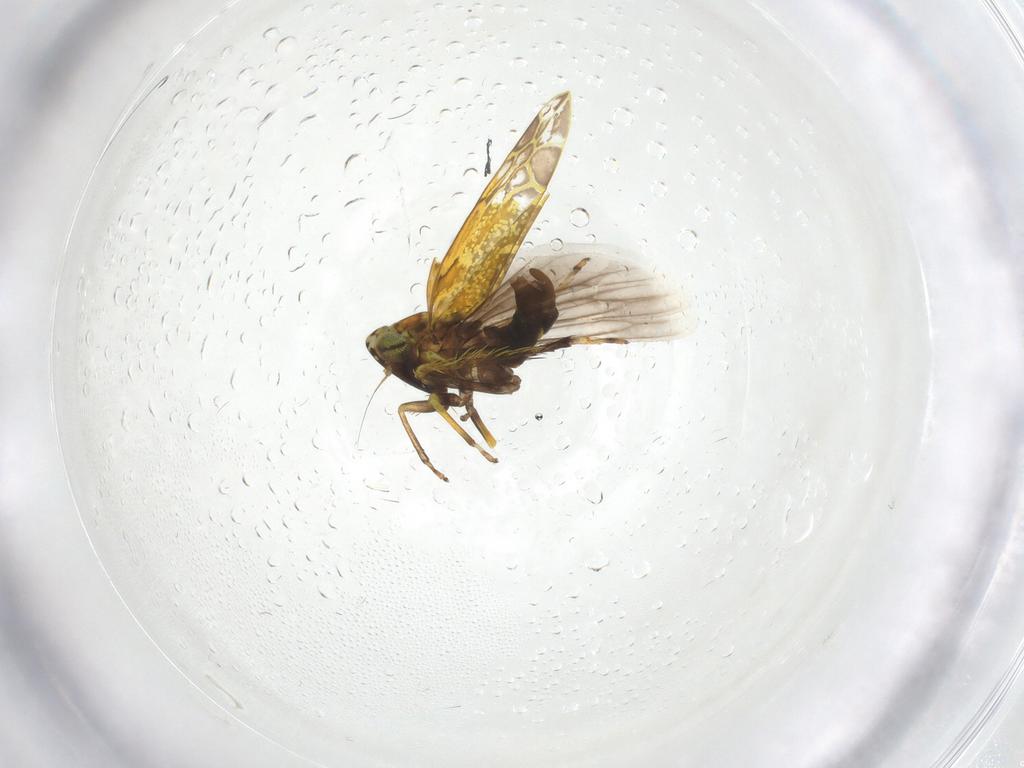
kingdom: Animalia
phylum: Arthropoda
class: Insecta
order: Hemiptera
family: Cicadellidae
